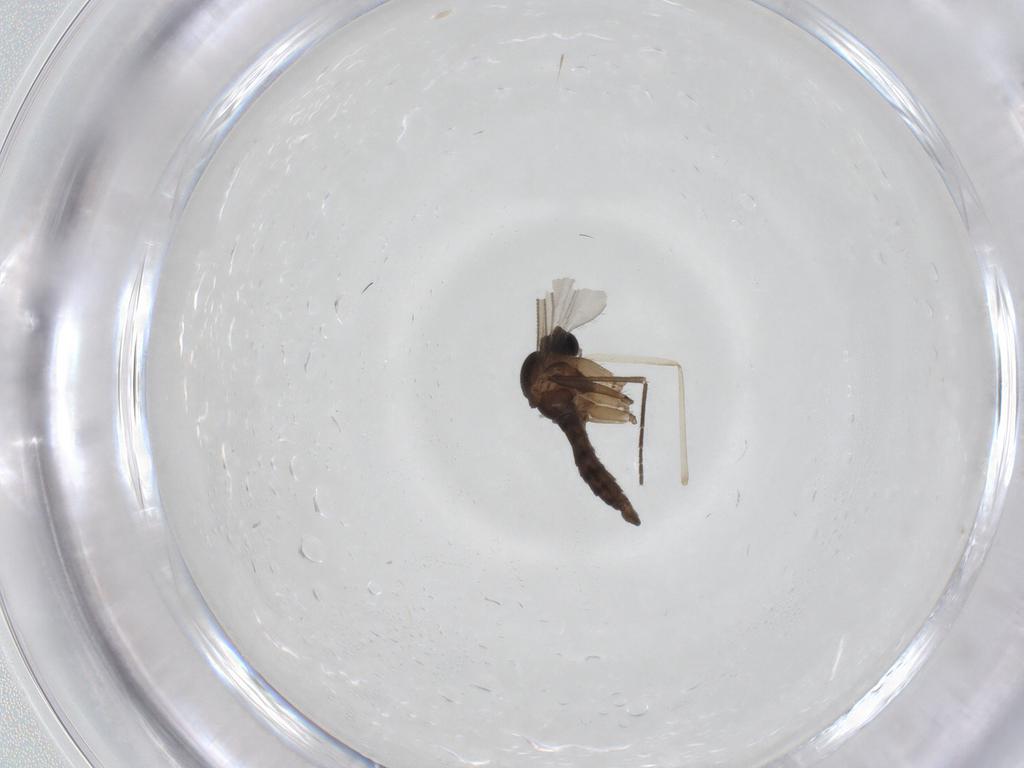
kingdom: Animalia
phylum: Arthropoda
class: Insecta
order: Diptera
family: Sciaridae
